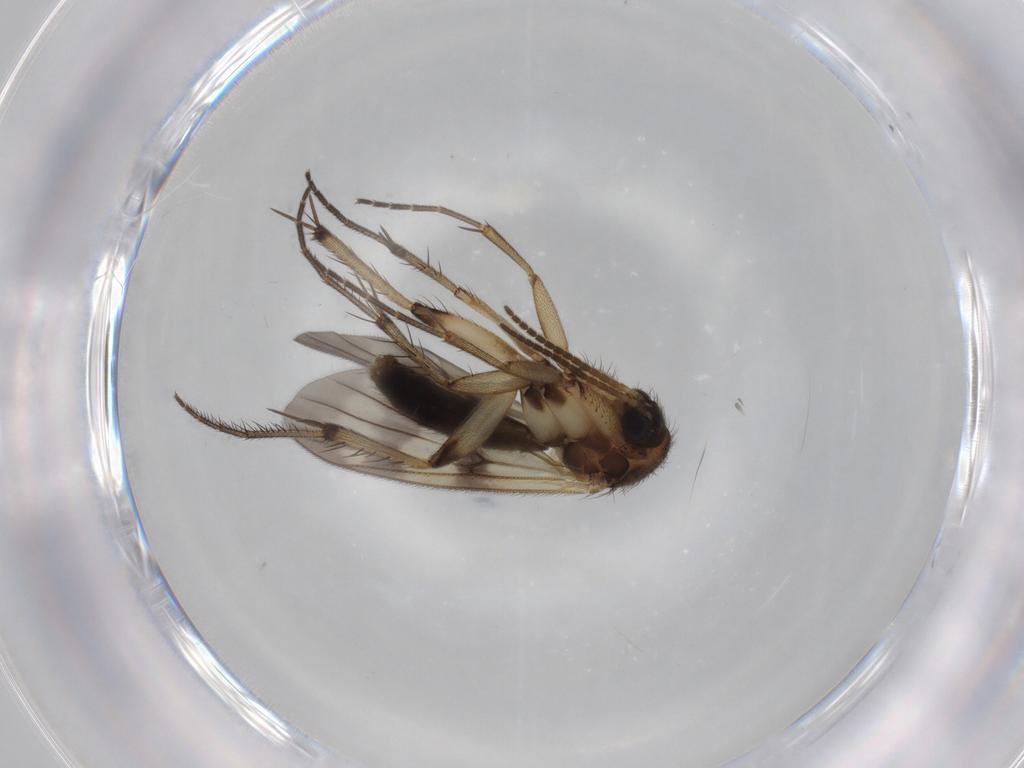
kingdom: Animalia
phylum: Arthropoda
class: Insecta
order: Diptera
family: Mycetophilidae
